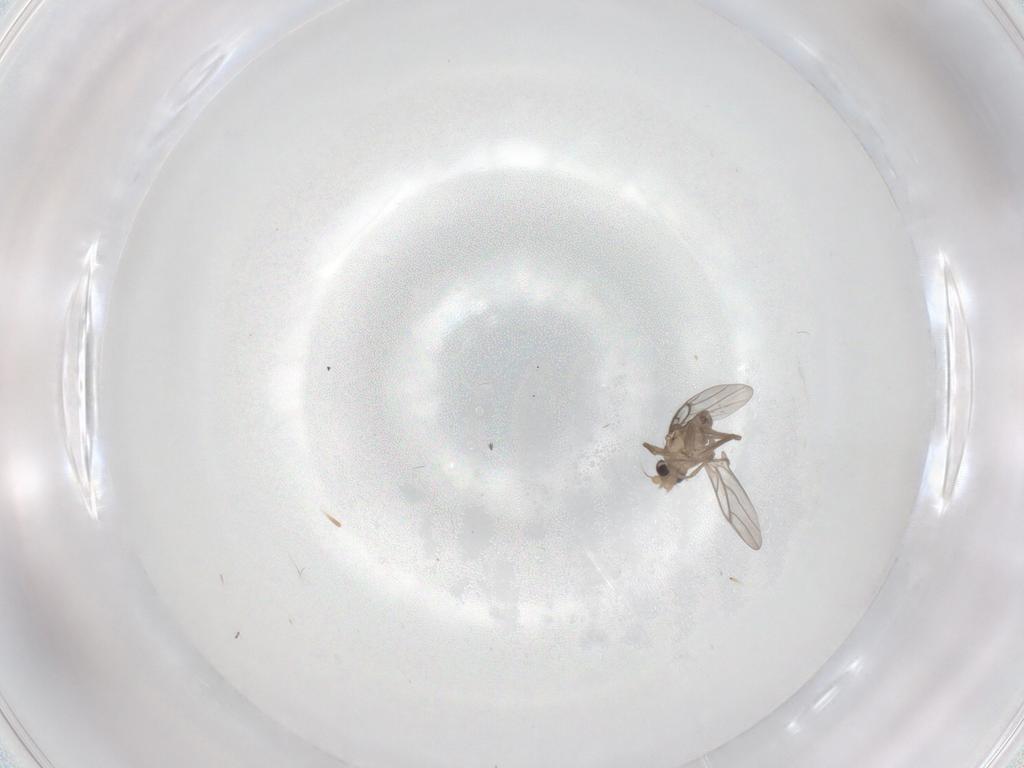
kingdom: Animalia
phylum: Arthropoda
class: Insecta
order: Diptera
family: Chironomidae
